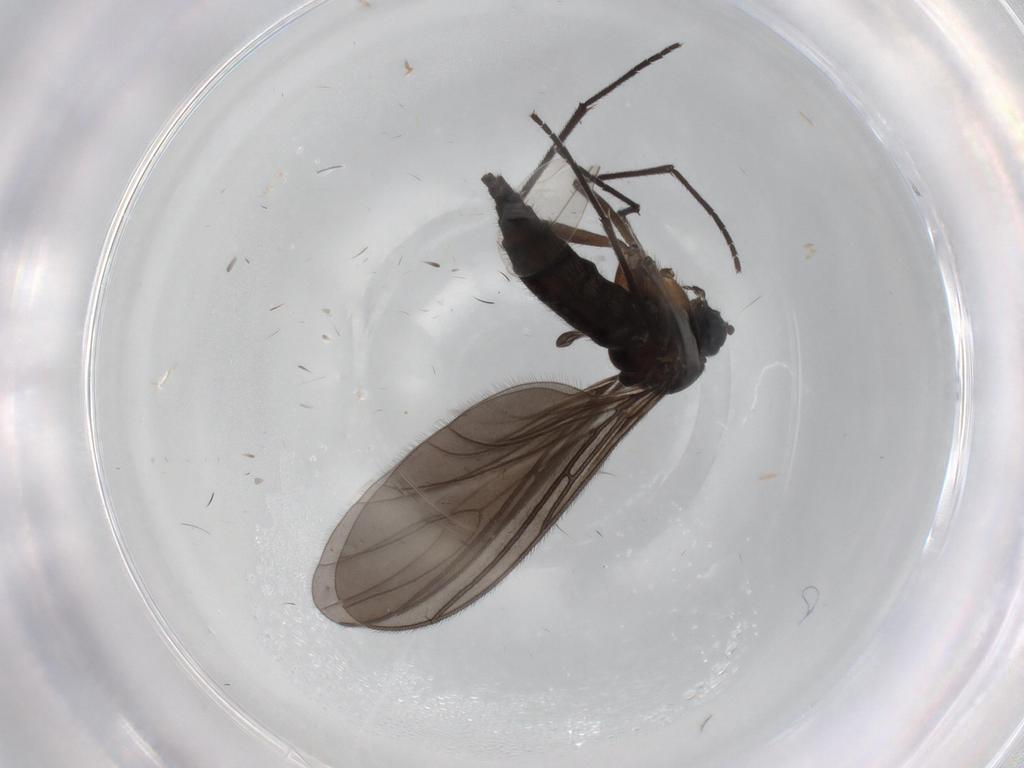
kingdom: Animalia
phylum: Arthropoda
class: Insecta
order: Diptera
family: Sciaridae
